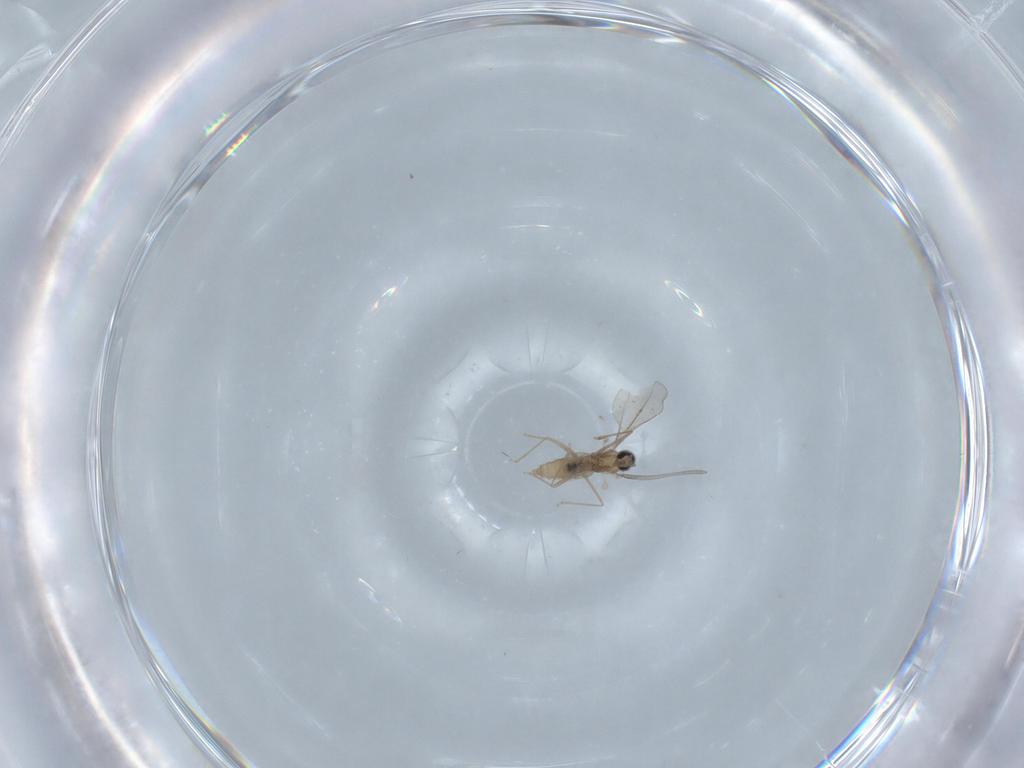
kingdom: Animalia
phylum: Arthropoda
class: Insecta
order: Diptera
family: Cecidomyiidae
